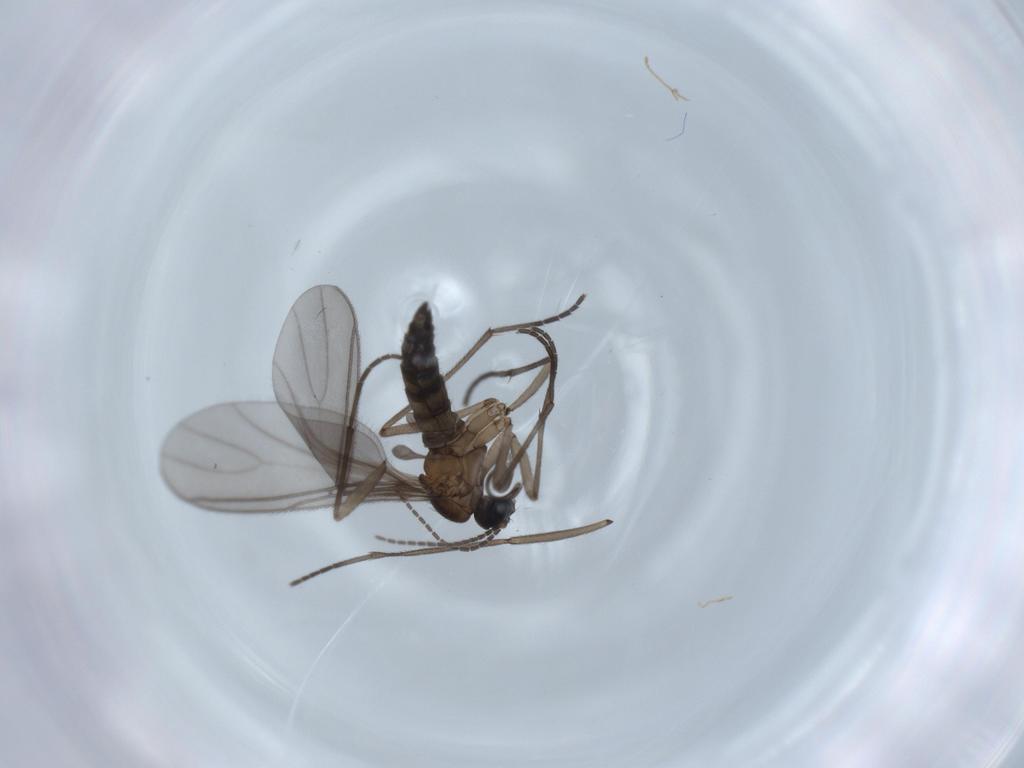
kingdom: Animalia
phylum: Arthropoda
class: Insecta
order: Diptera
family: Sciaridae
